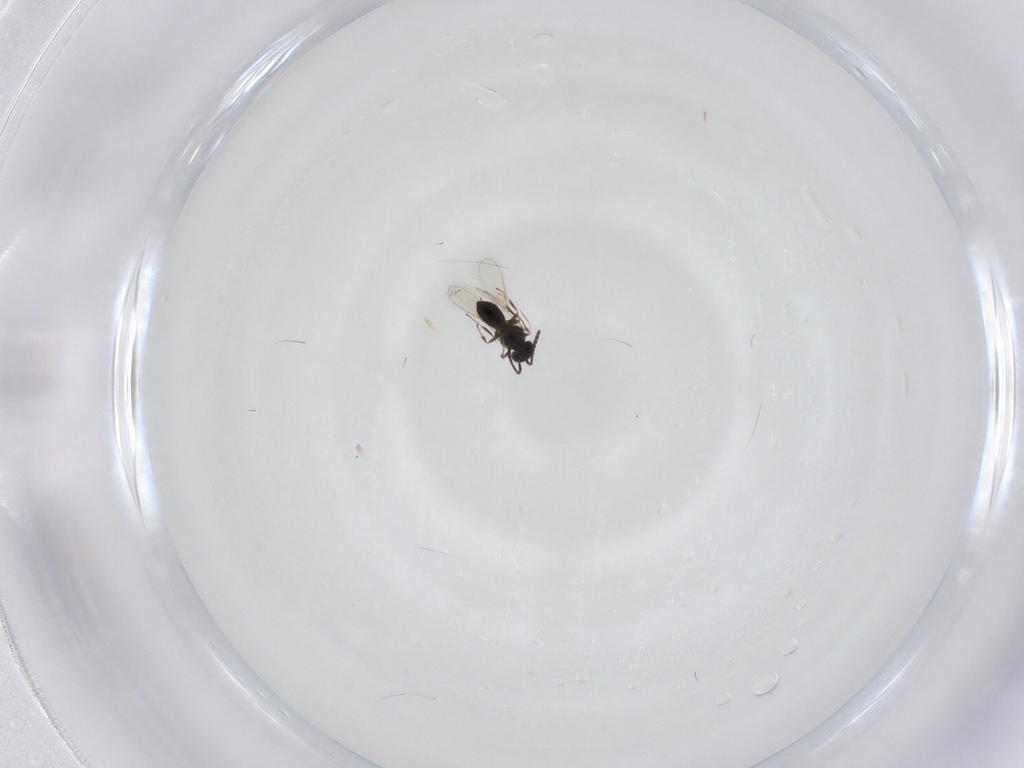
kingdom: Animalia
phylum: Arthropoda
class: Insecta
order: Hymenoptera
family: Scelionidae
